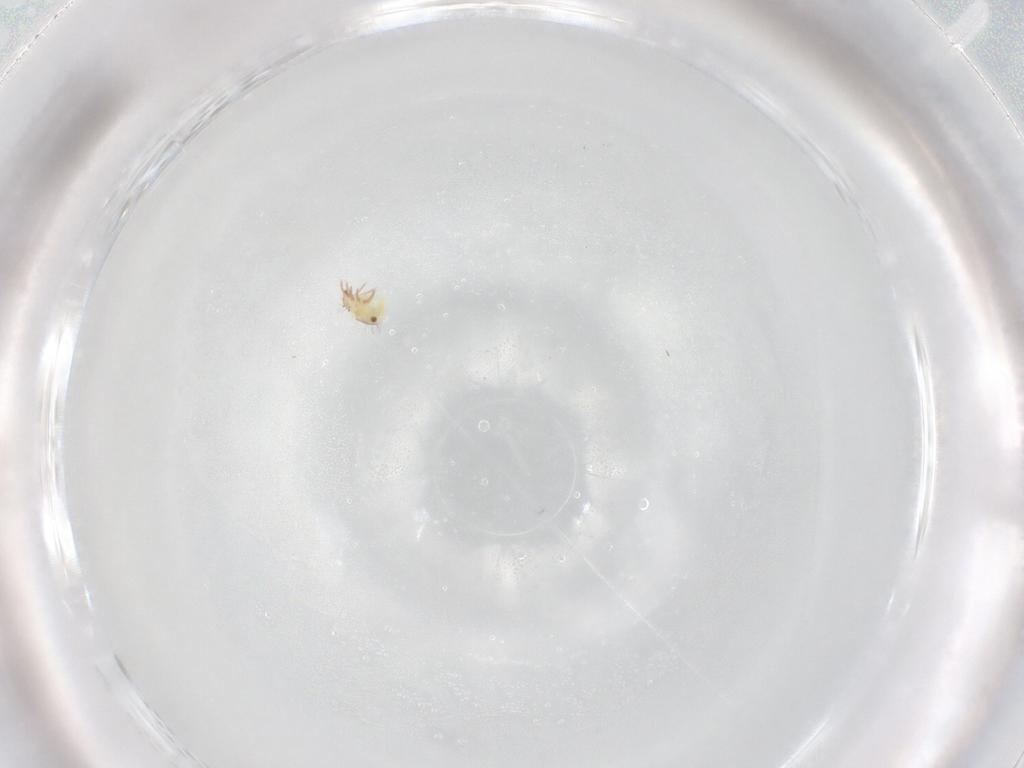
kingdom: Animalia
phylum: Arthropoda
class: Arachnida
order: Sarcoptiformes
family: Humerobatidae
